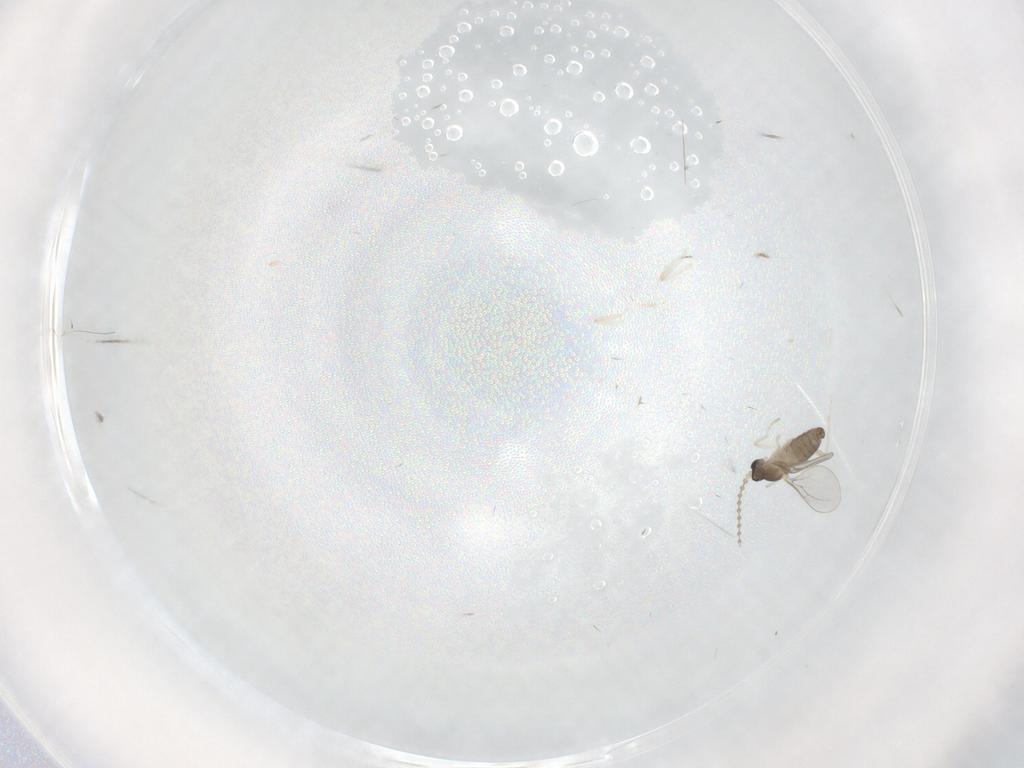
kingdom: Animalia
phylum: Arthropoda
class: Insecta
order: Diptera
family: Cecidomyiidae
